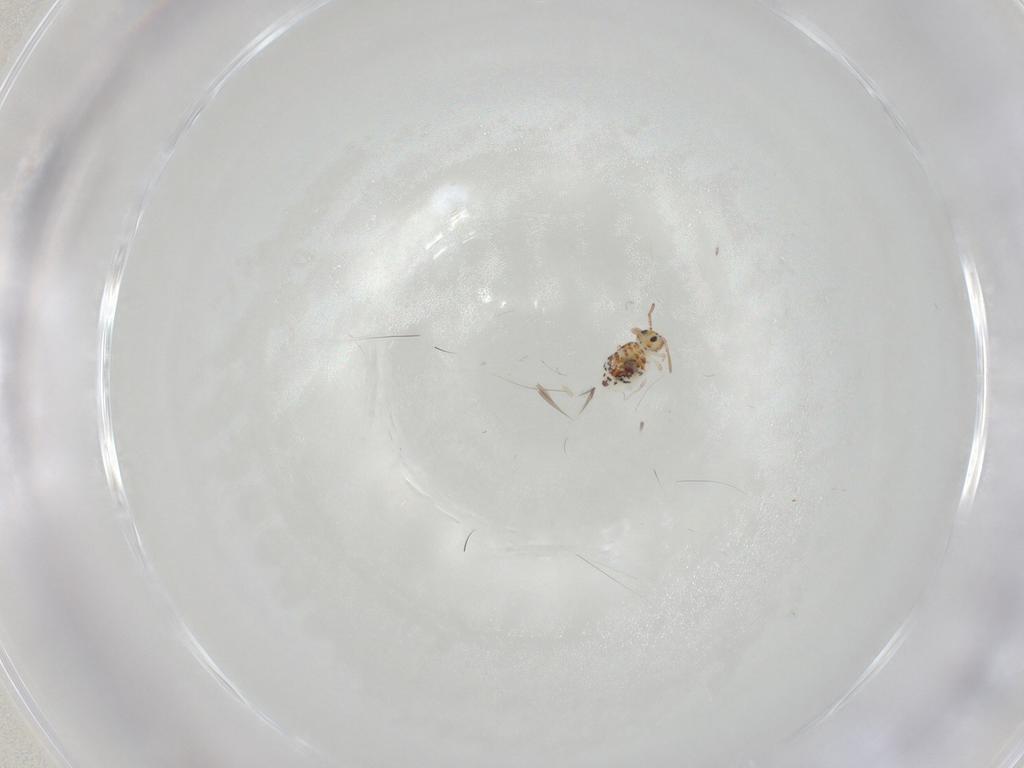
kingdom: Animalia
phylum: Arthropoda
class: Collembola
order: Symphypleona
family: Bourletiellidae
